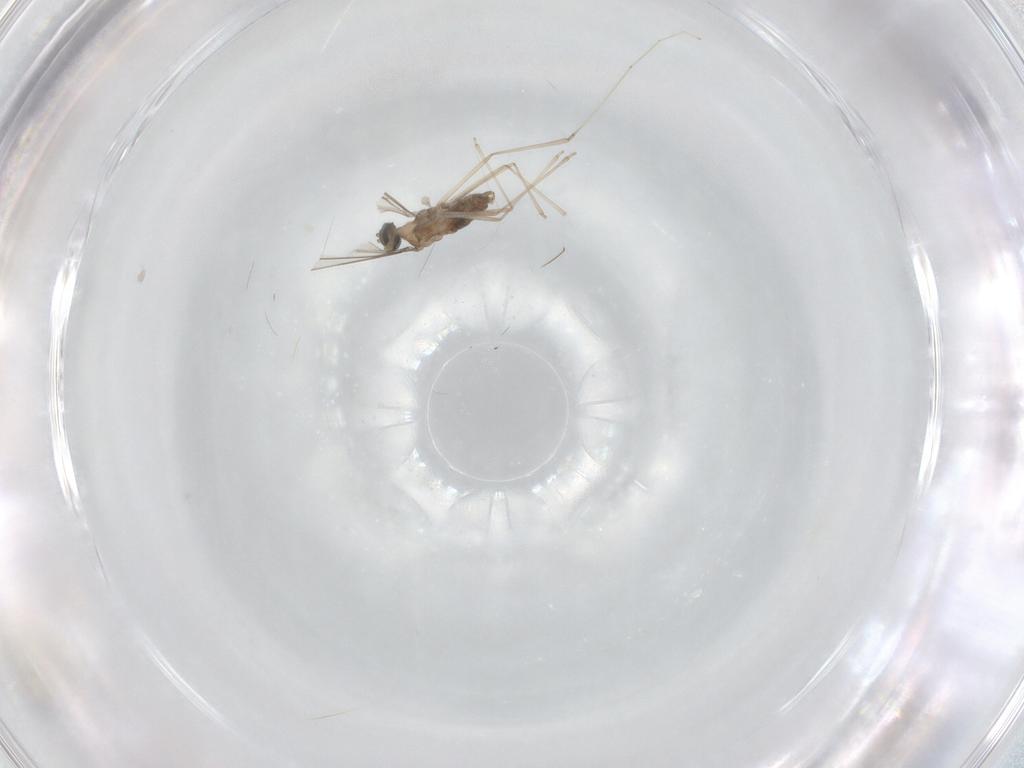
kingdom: Animalia
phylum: Arthropoda
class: Insecta
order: Diptera
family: Cecidomyiidae
